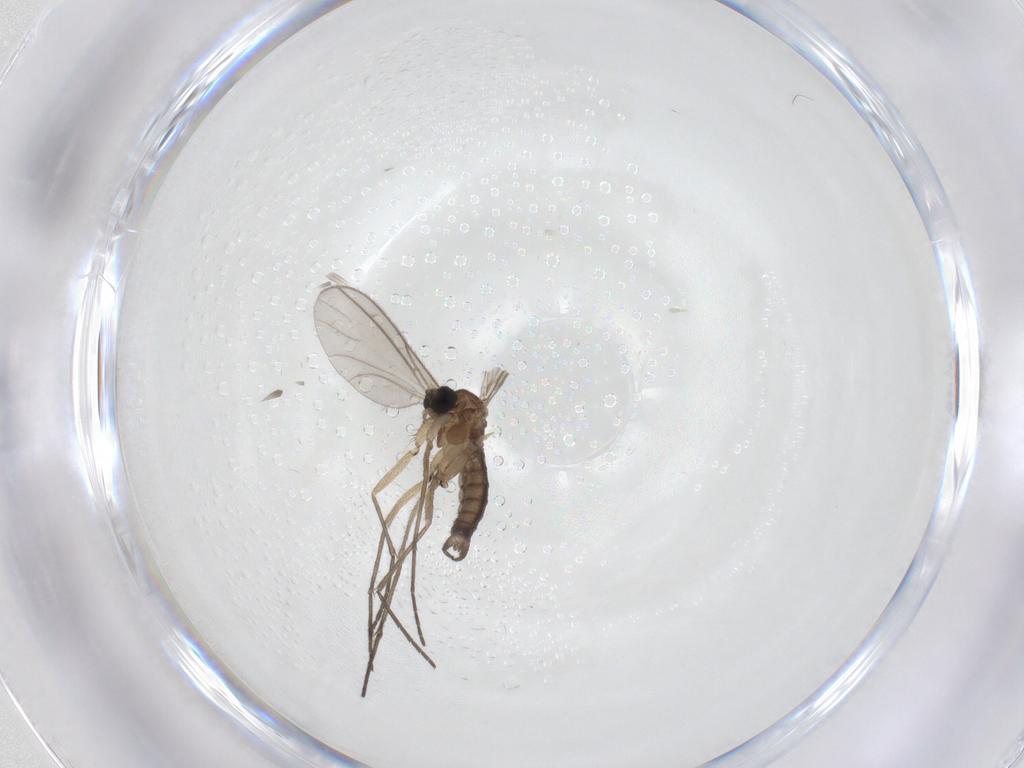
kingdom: Animalia
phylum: Arthropoda
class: Insecta
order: Diptera
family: Sciaridae
